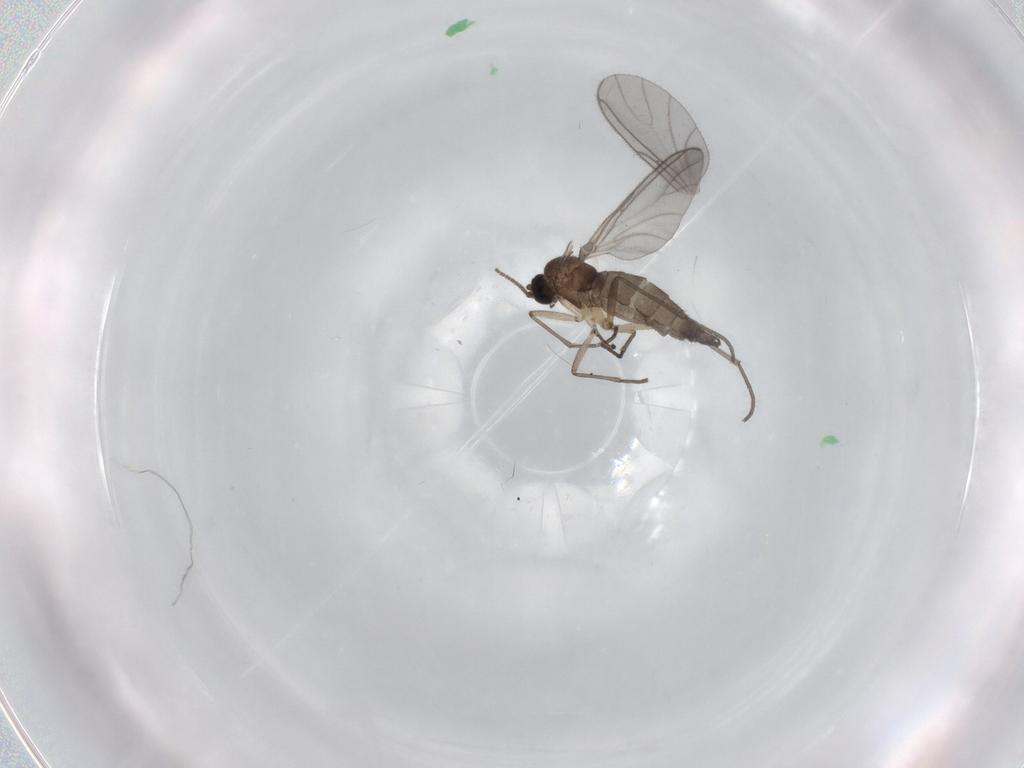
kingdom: Animalia
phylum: Arthropoda
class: Insecta
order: Diptera
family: Sciaridae
